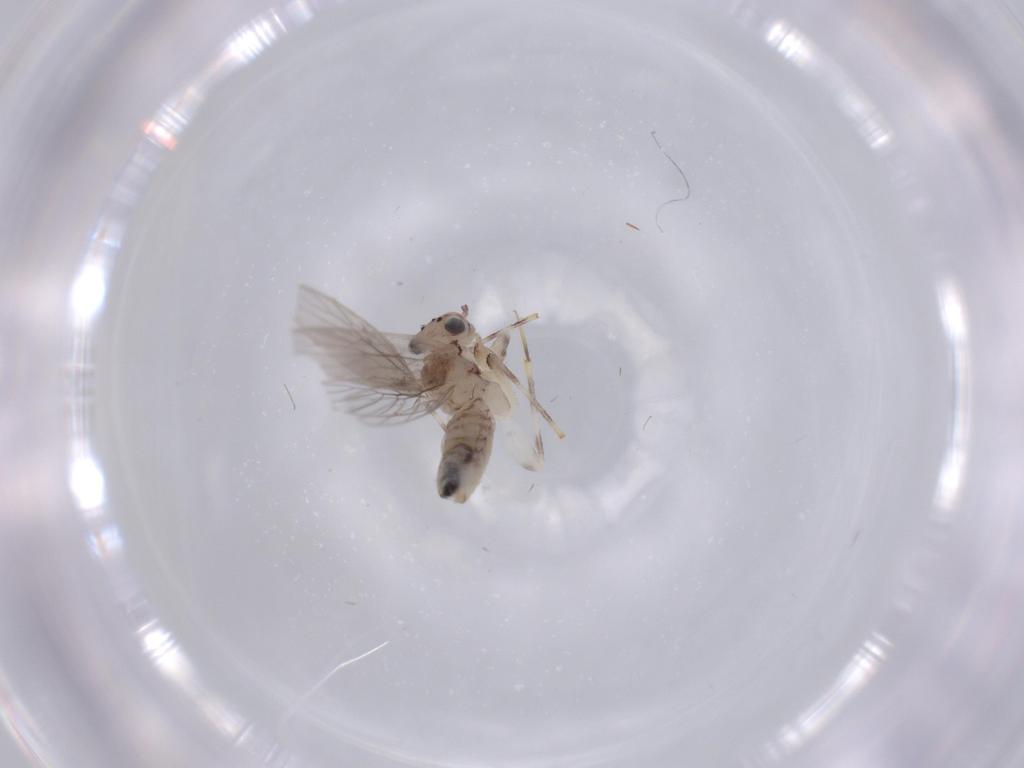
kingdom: Animalia
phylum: Arthropoda
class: Insecta
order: Psocodea
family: Lepidopsocidae
